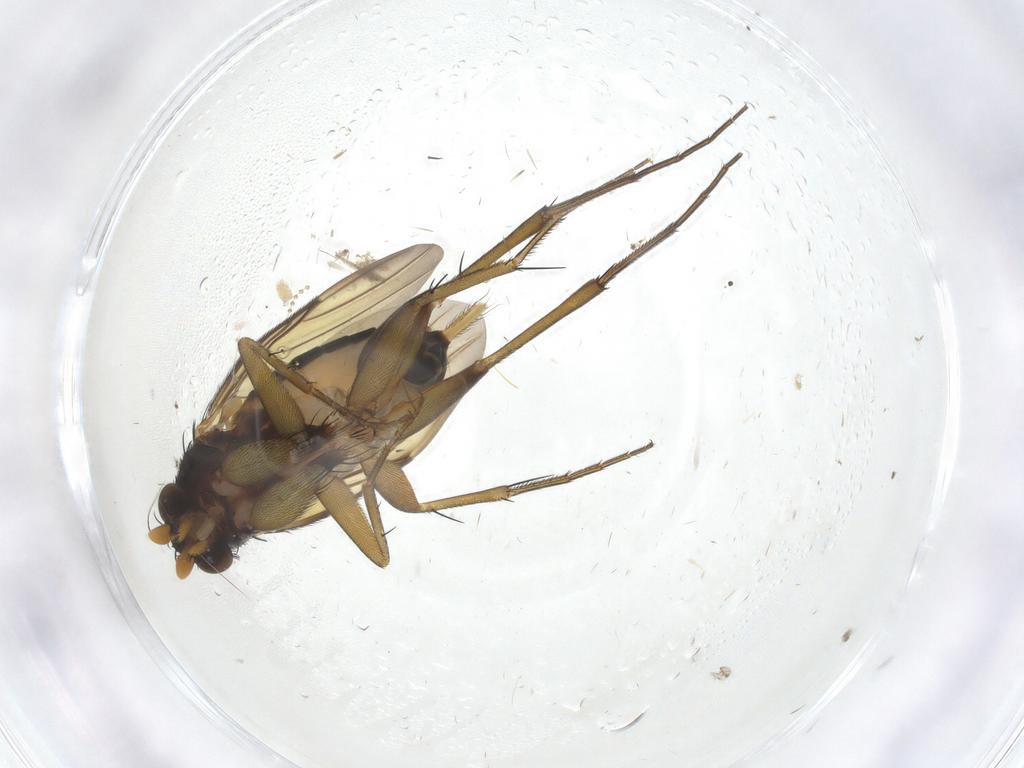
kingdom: Animalia
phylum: Arthropoda
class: Insecta
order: Diptera
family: Phoridae
